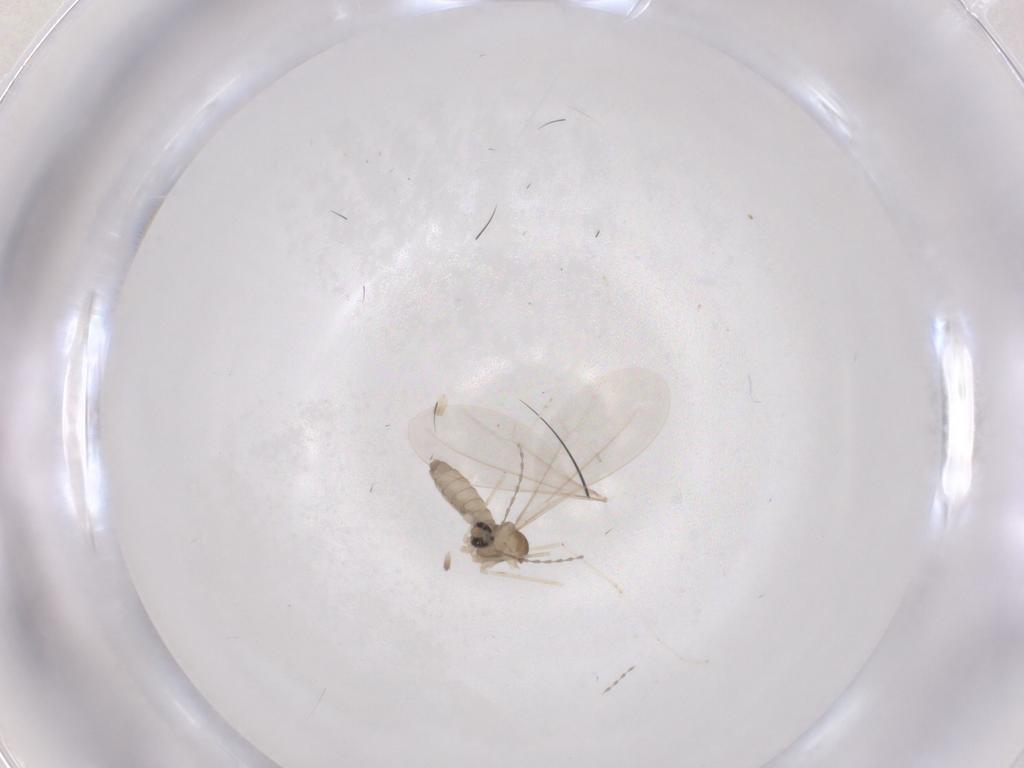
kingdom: Animalia
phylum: Arthropoda
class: Insecta
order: Diptera
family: Cecidomyiidae
